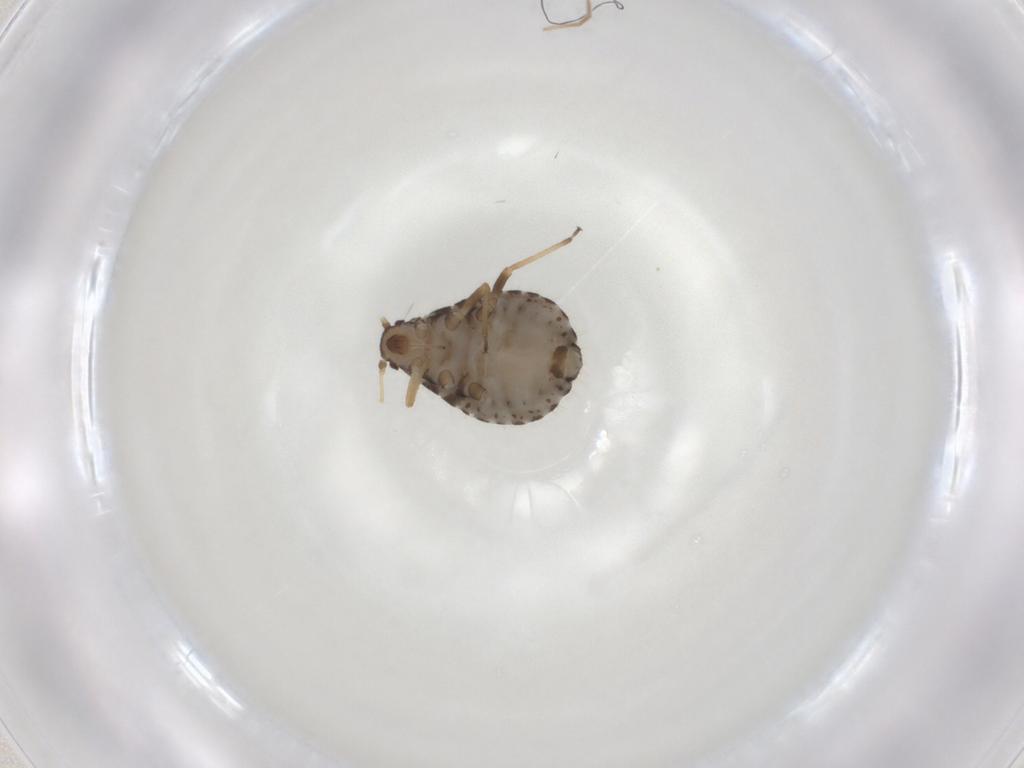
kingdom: Animalia
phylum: Arthropoda
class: Insecta
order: Hemiptera
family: Aphididae
